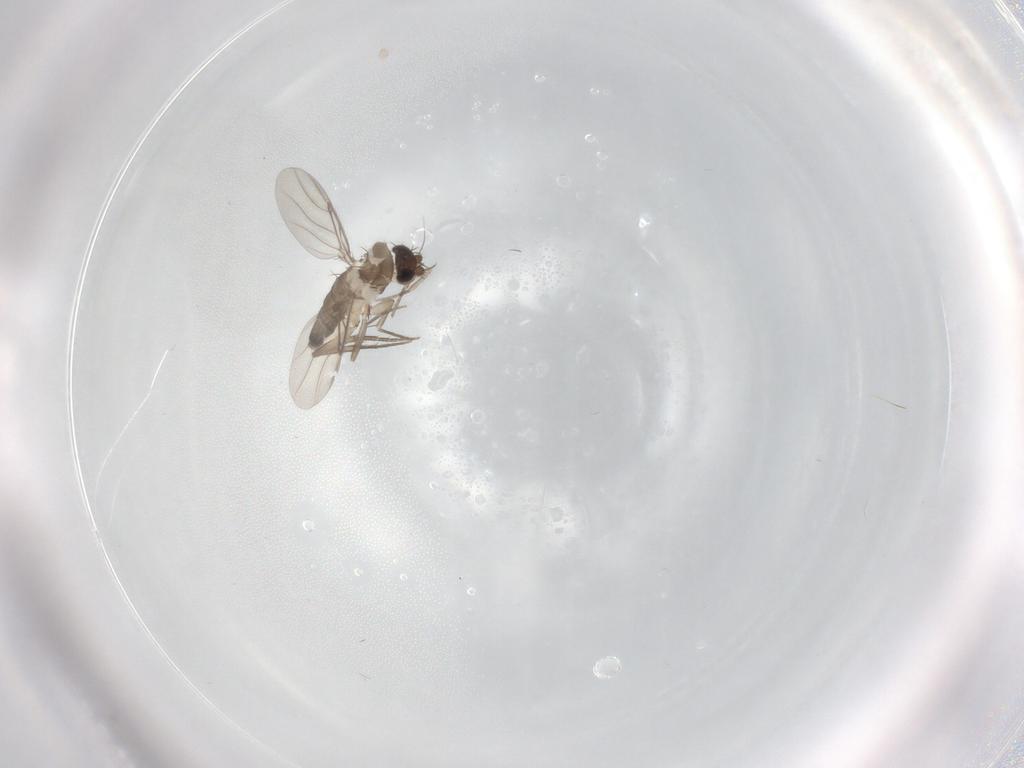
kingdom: Animalia
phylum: Arthropoda
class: Insecta
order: Diptera
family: Phoridae
